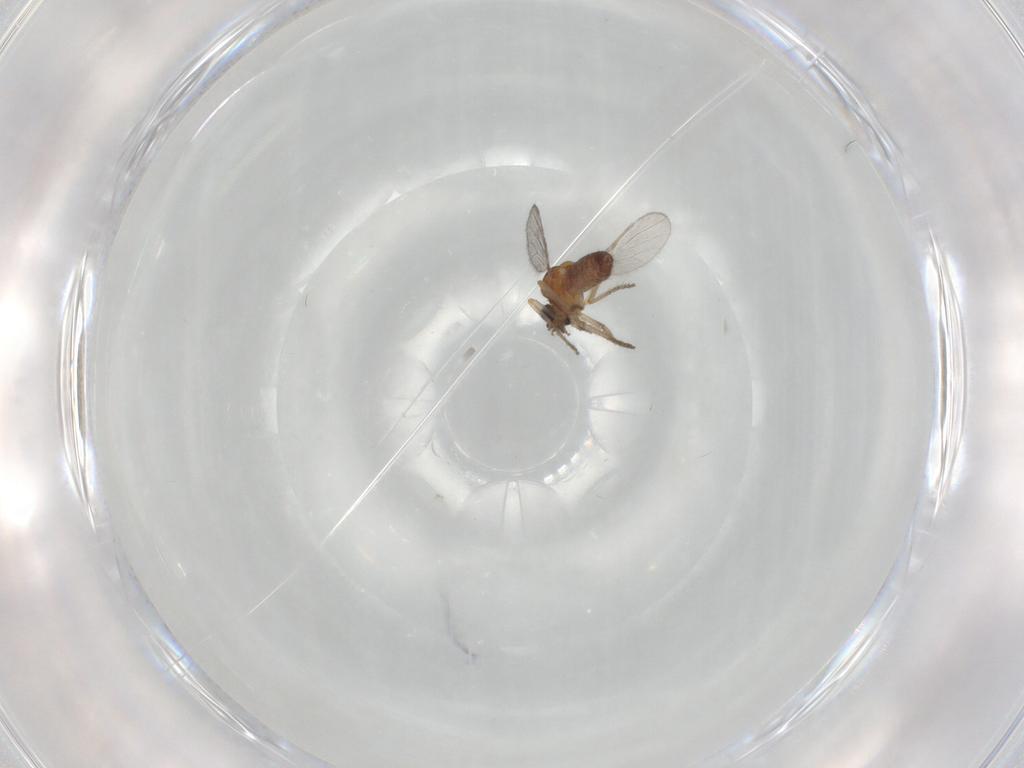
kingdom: Animalia
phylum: Arthropoda
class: Insecta
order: Diptera
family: Ceratopogonidae
